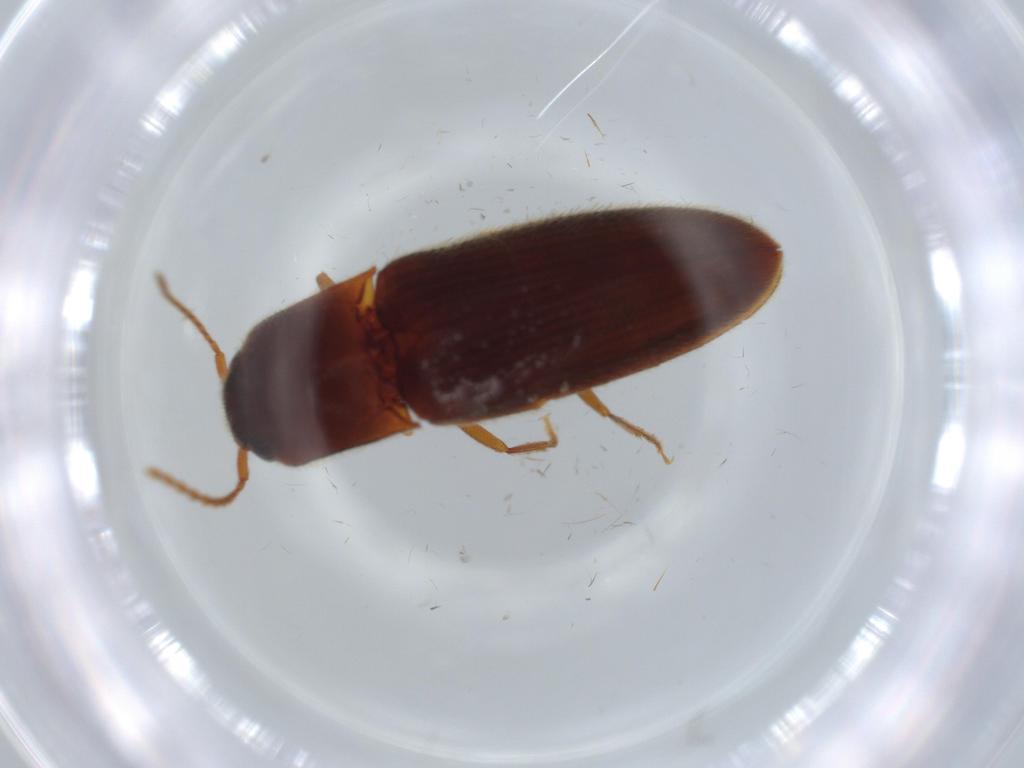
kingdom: Animalia
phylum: Arthropoda
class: Insecta
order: Coleoptera
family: Elateridae
